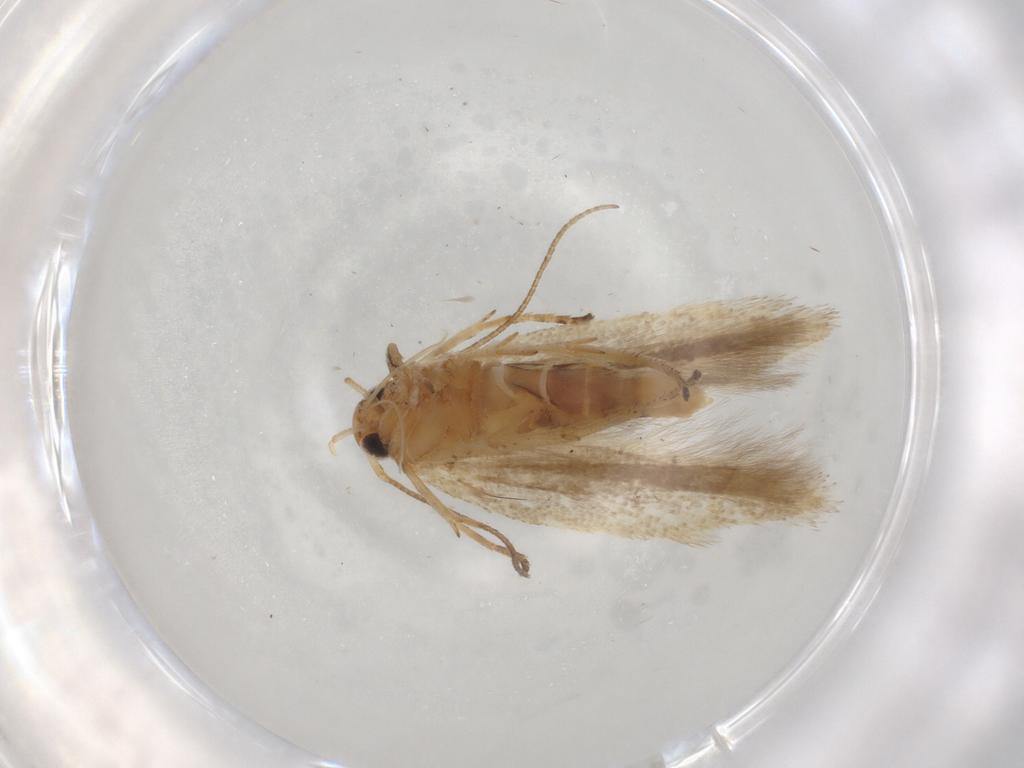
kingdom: Animalia
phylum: Arthropoda
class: Insecta
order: Lepidoptera
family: Gelechiidae
